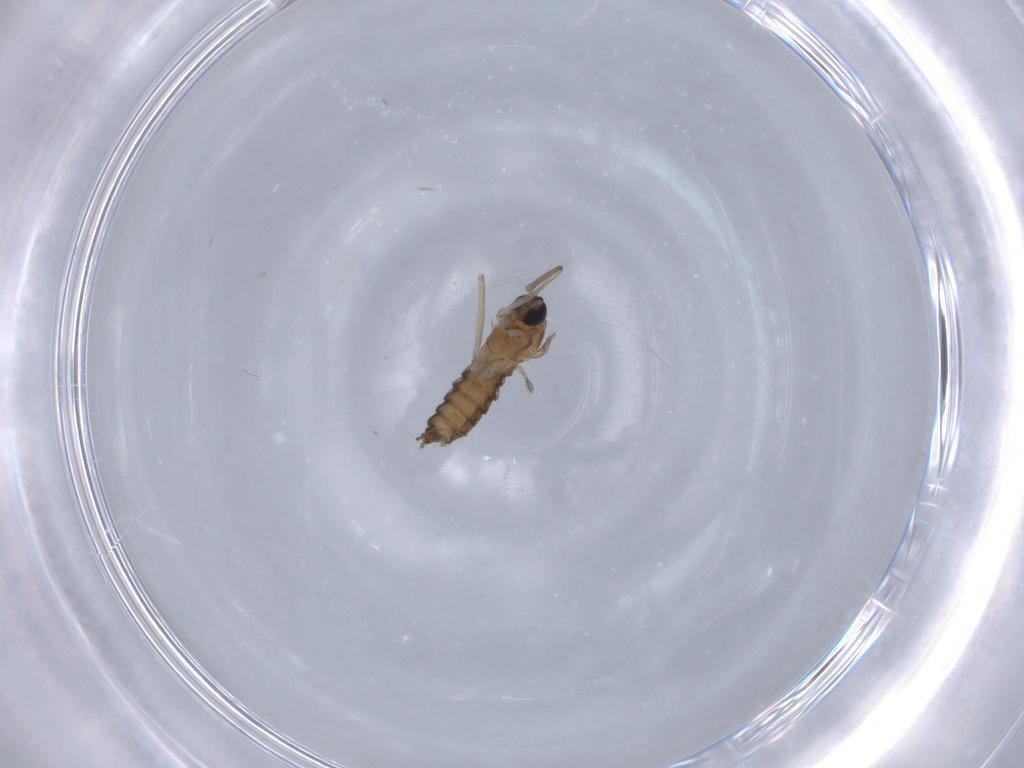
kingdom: Animalia
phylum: Arthropoda
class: Insecta
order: Diptera
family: Cecidomyiidae
